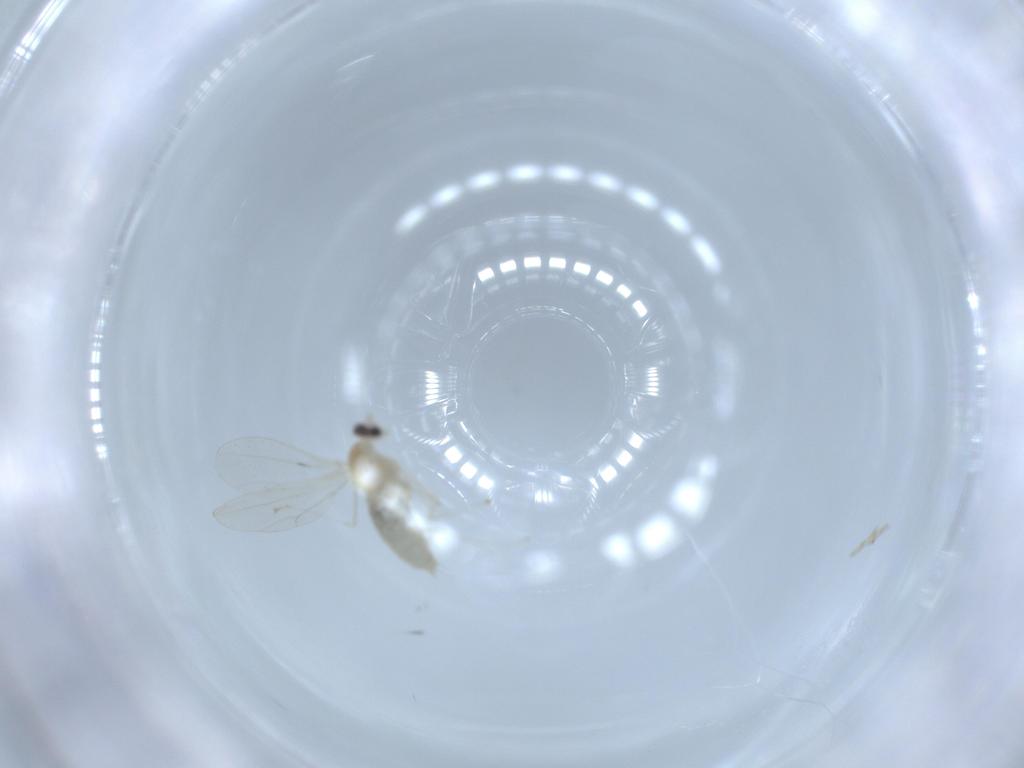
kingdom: Animalia
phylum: Arthropoda
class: Insecta
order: Diptera
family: Cecidomyiidae
